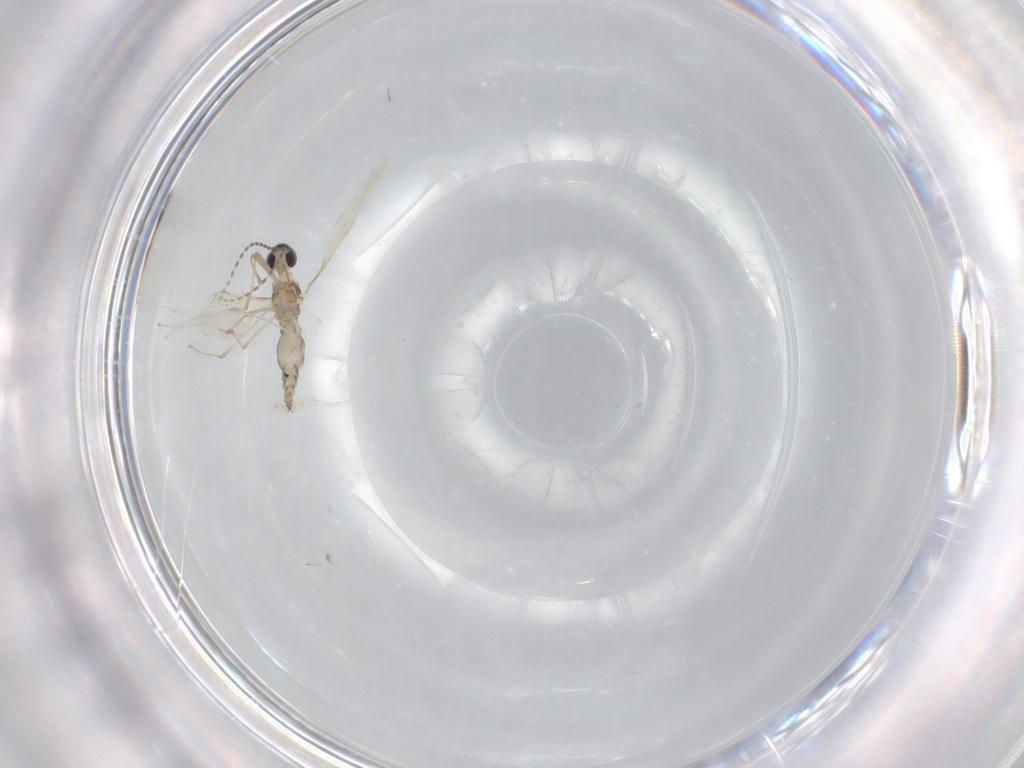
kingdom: Animalia
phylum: Arthropoda
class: Insecta
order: Diptera
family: Cecidomyiidae
